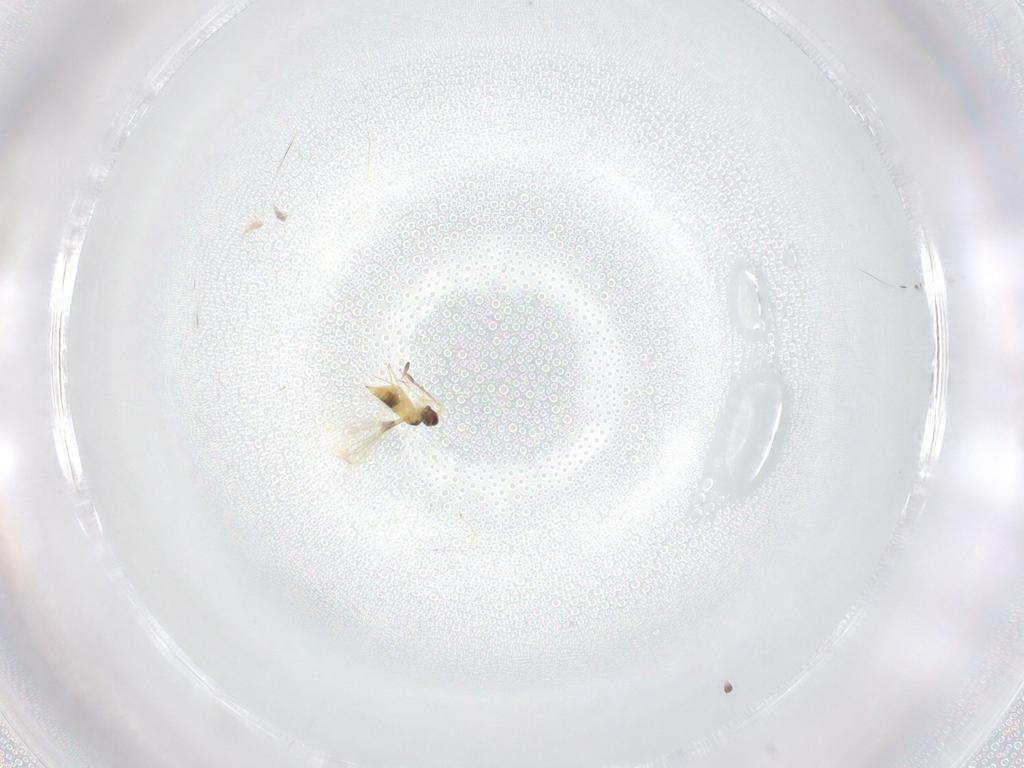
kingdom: Animalia
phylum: Arthropoda
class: Insecta
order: Hymenoptera
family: Mymaridae
